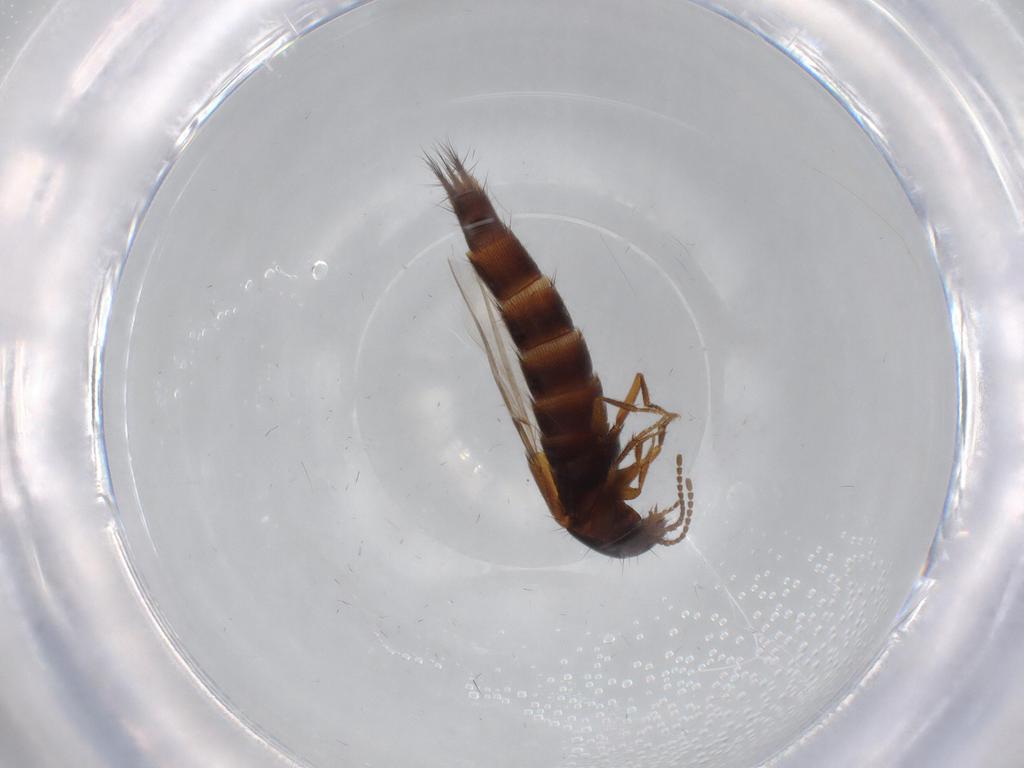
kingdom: Animalia
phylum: Arthropoda
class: Insecta
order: Coleoptera
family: Staphylinidae
